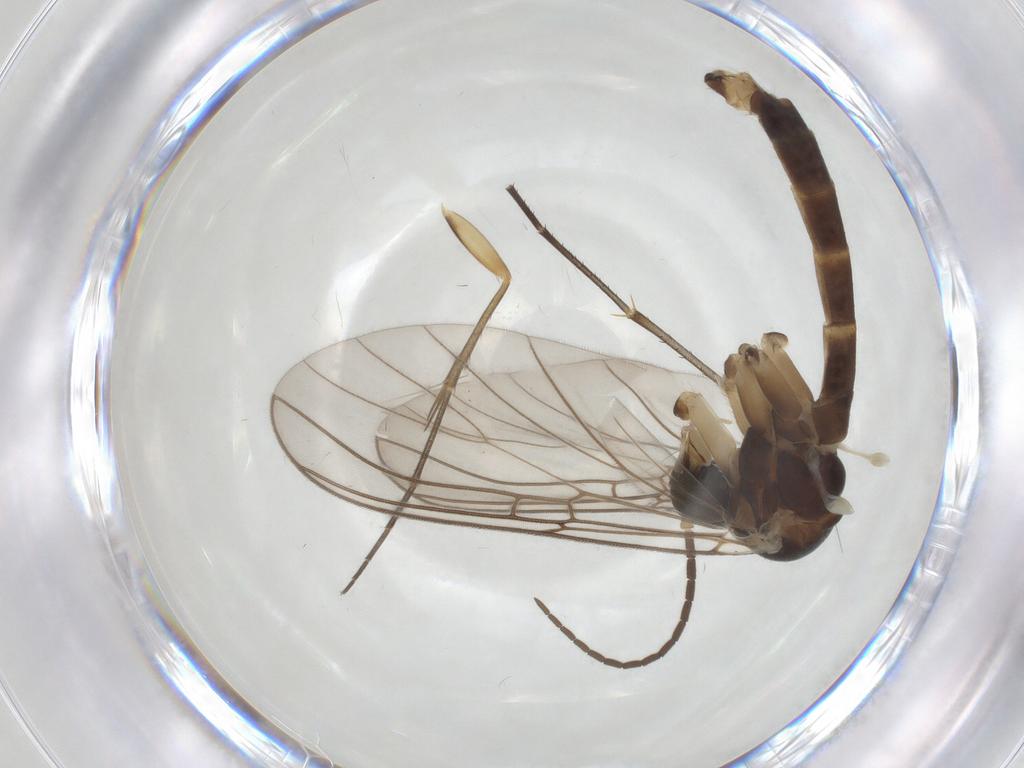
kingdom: Animalia
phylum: Arthropoda
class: Insecta
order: Diptera
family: Mycetophilidae
